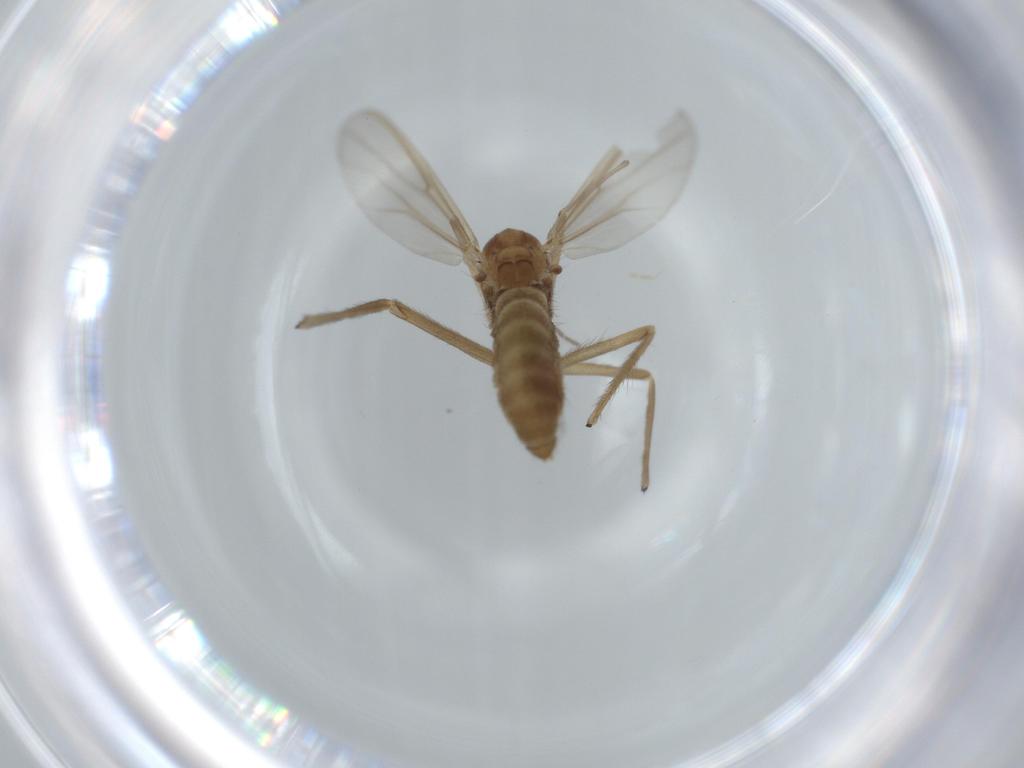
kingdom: Animalia
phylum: Arthropoda
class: Insecta
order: Diptera
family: Chironomidae
